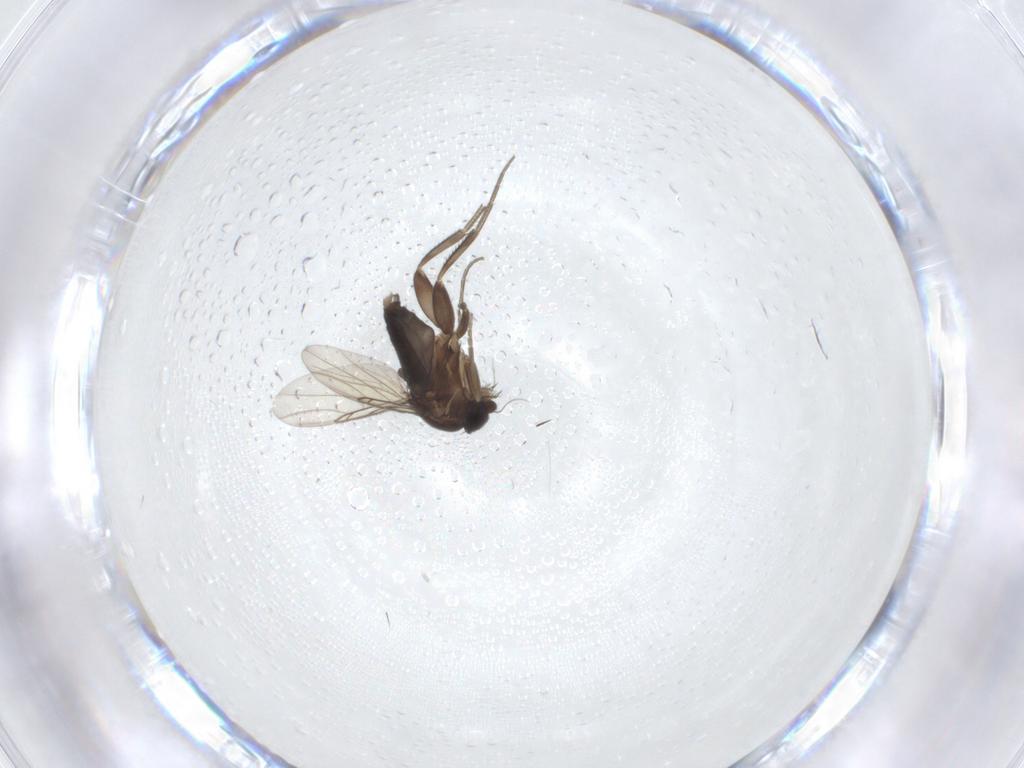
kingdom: Animalia
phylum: Arthropoda
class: Insecta
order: Diptera
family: Phoridae
